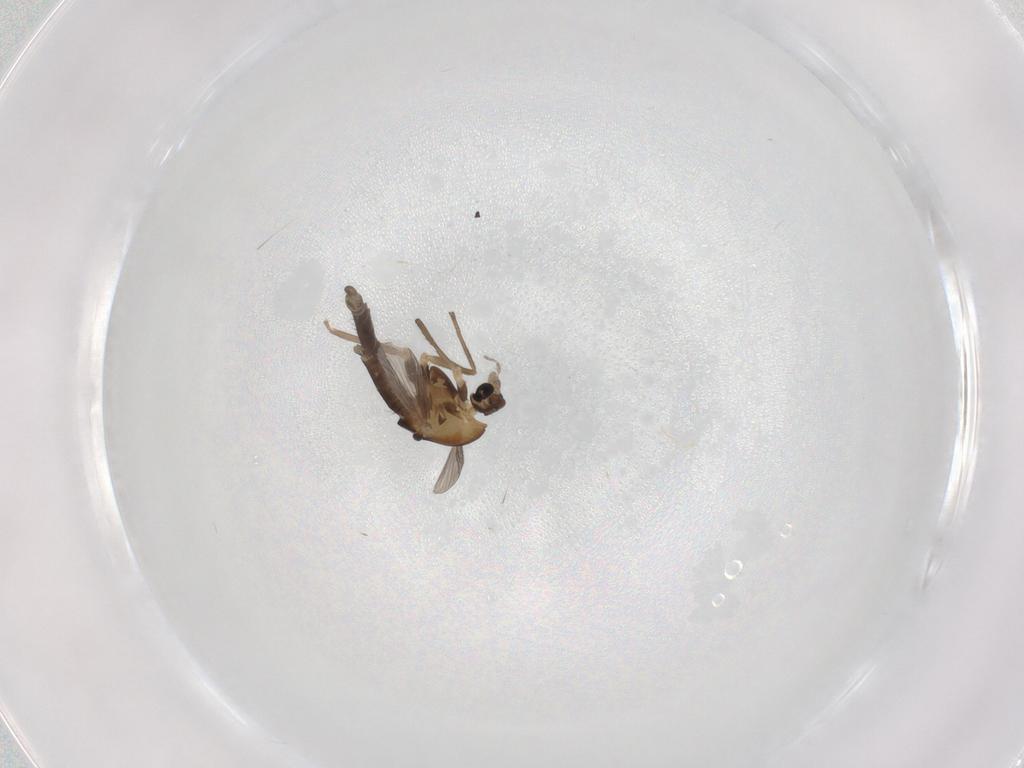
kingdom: Animalia
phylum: Arthropoda
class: Insecta
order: Diptera
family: Chironomidae
